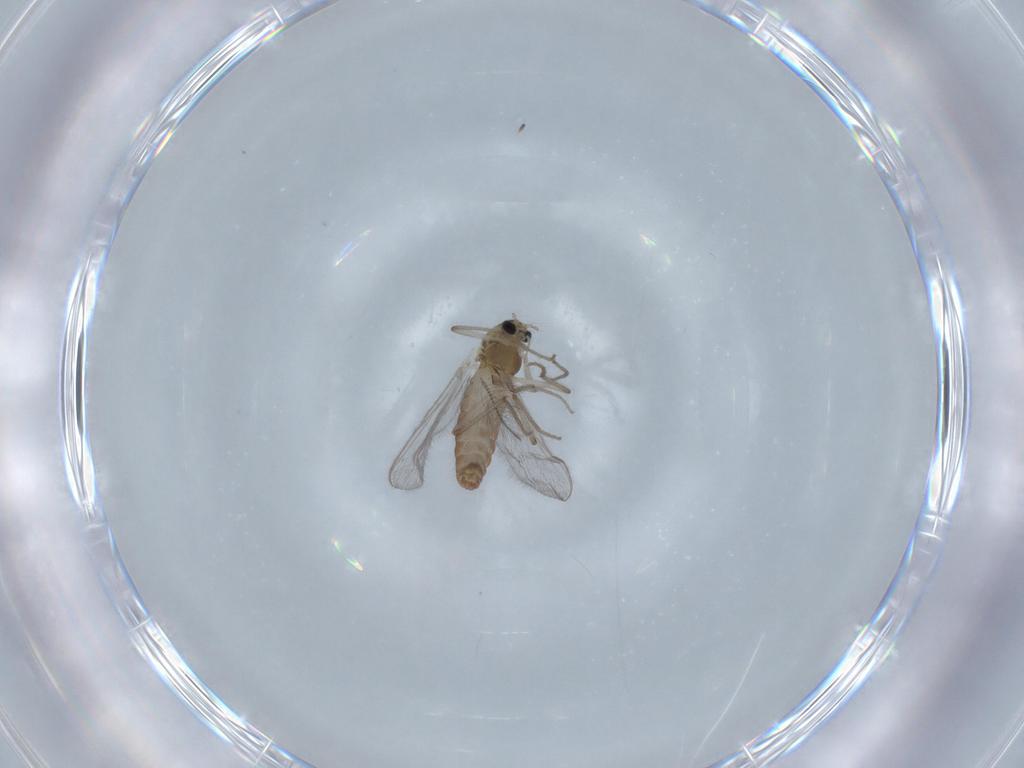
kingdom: Animalia
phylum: Arthropoda
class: Insecta
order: Diptera
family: Chironomidae
